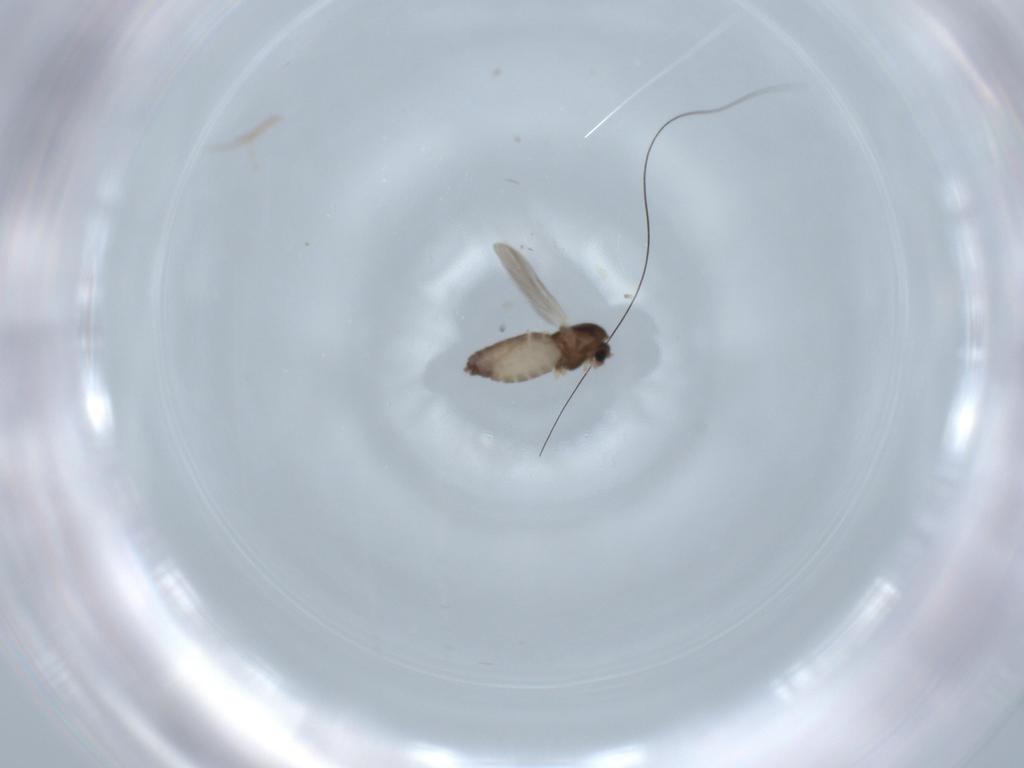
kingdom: Animalia
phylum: Arthropoda
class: Insecta
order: Diptera
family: Chironomidae
